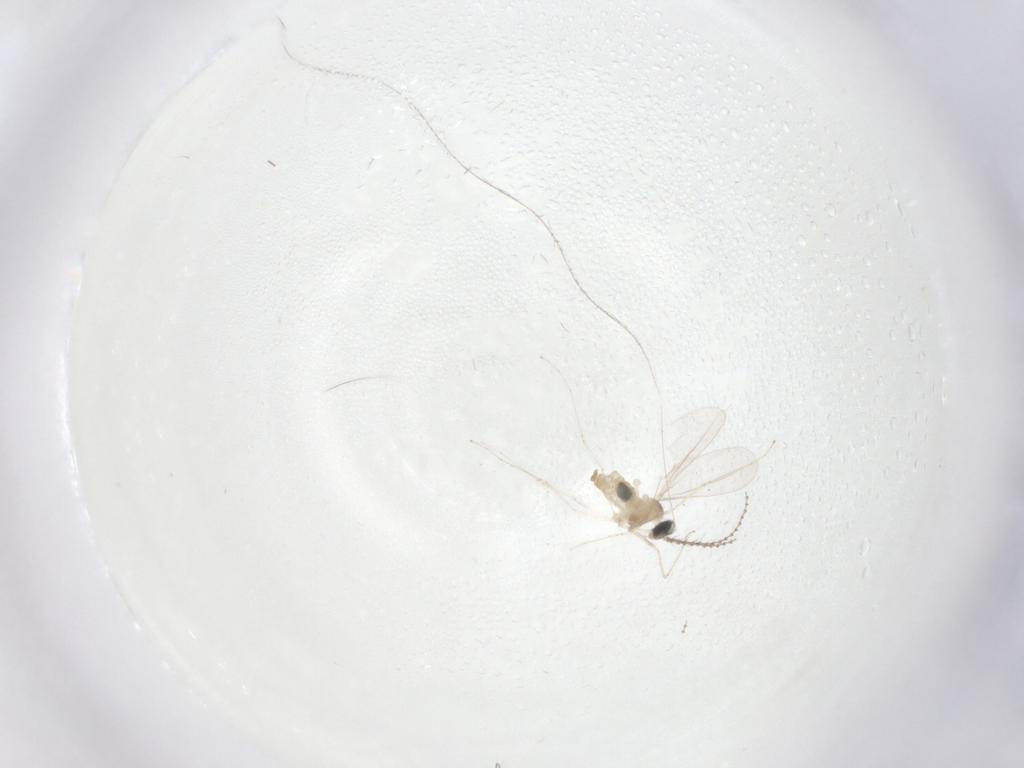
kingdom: Animalia
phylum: Arthropoda
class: Insecta
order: Diptera
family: Cecidomyiidae
